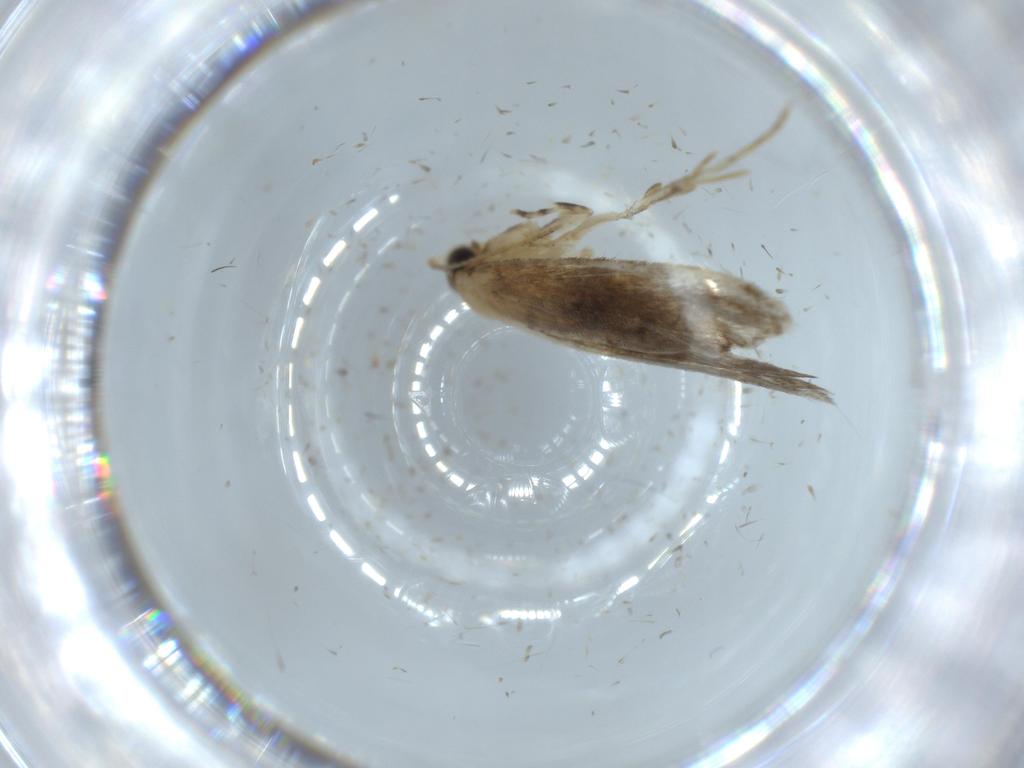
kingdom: Animalia
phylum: Arthropoda
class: Insecta
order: Lepidoptera
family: Tineidae
